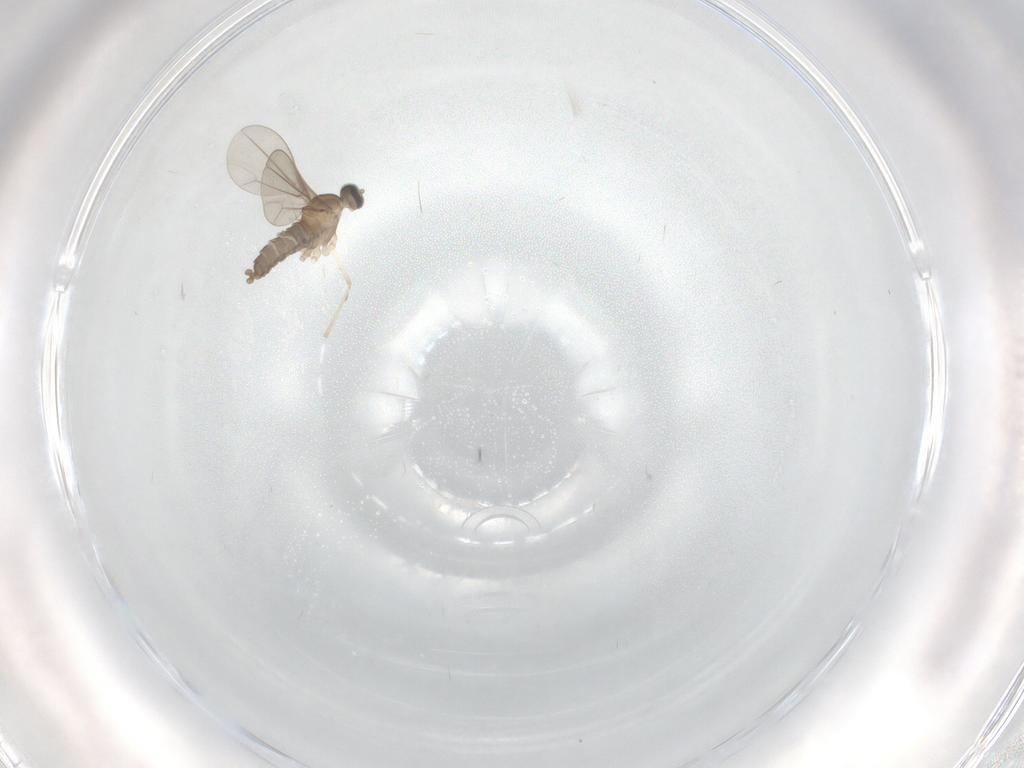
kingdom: Animalia
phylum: Arthropoda
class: Insecta
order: Diptera
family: Cecidomyiidae
